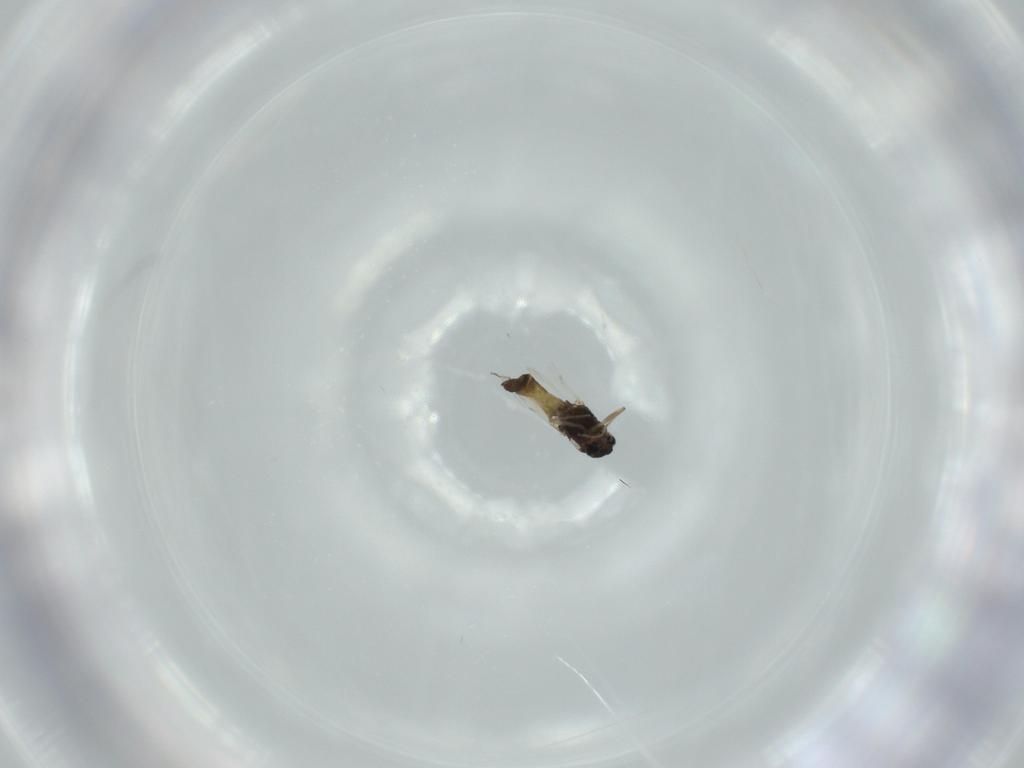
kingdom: Animalia
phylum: Arthropoda
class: Insecta
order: Diptera
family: Chironomidae
